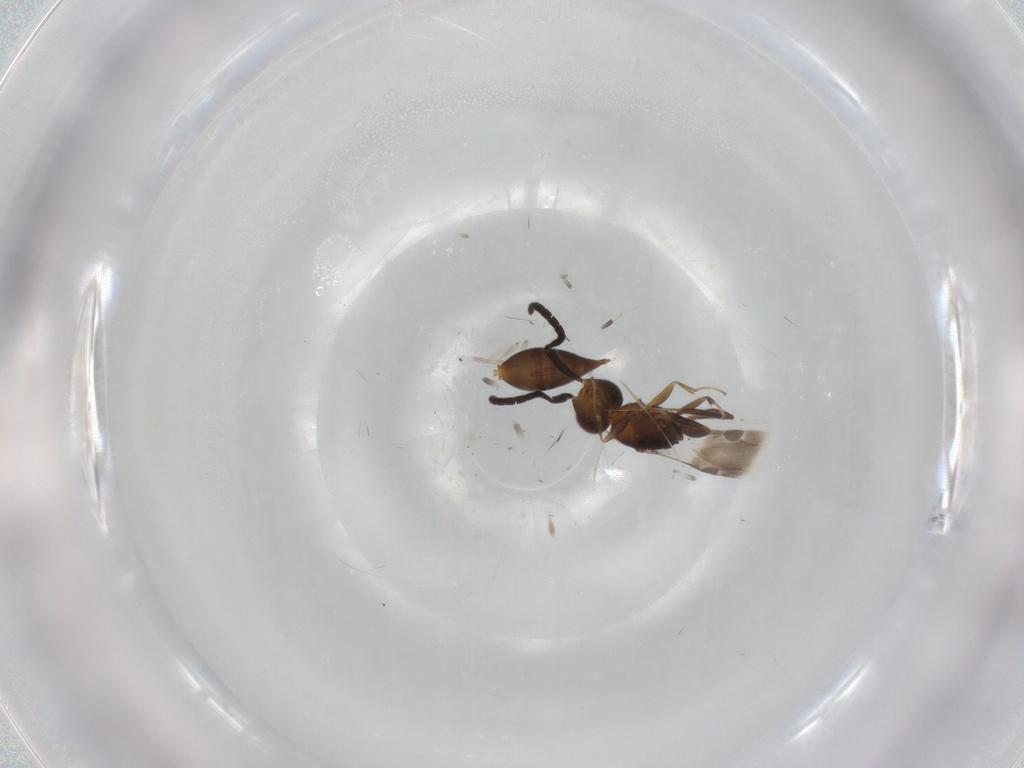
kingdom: Animalia
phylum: Arthropoda
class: Insecta
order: Hymenoptera
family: Megaspilidae
